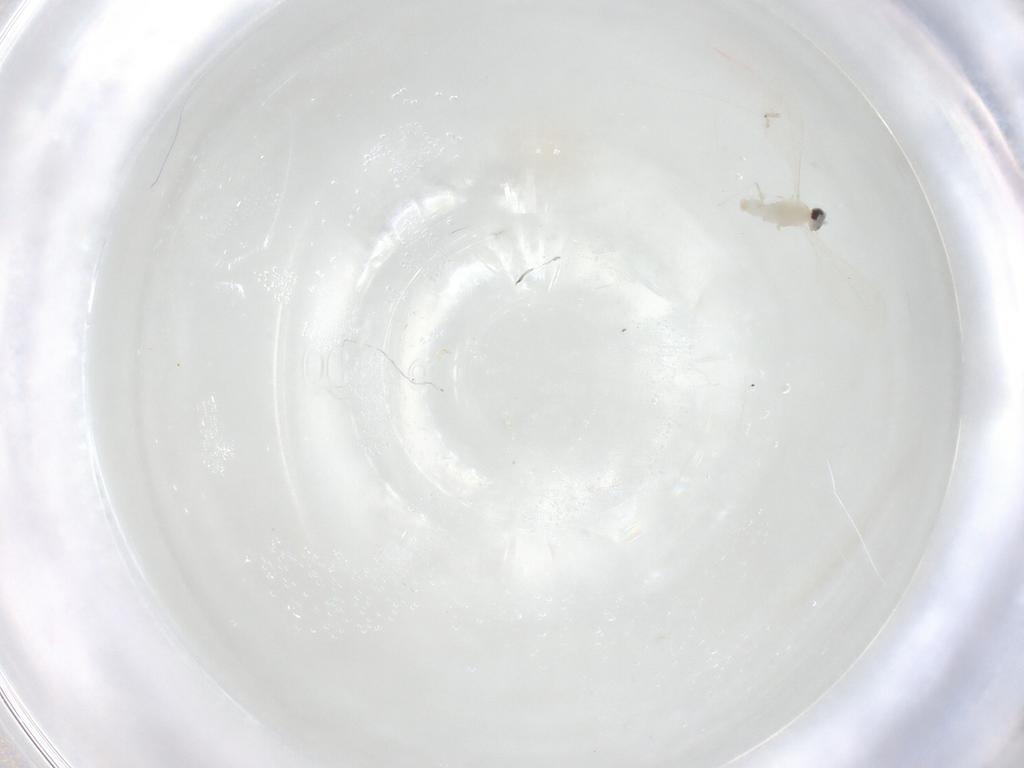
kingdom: Animalia
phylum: Arthropoda
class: Insecta
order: Diptera
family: Cecidomyiidae
